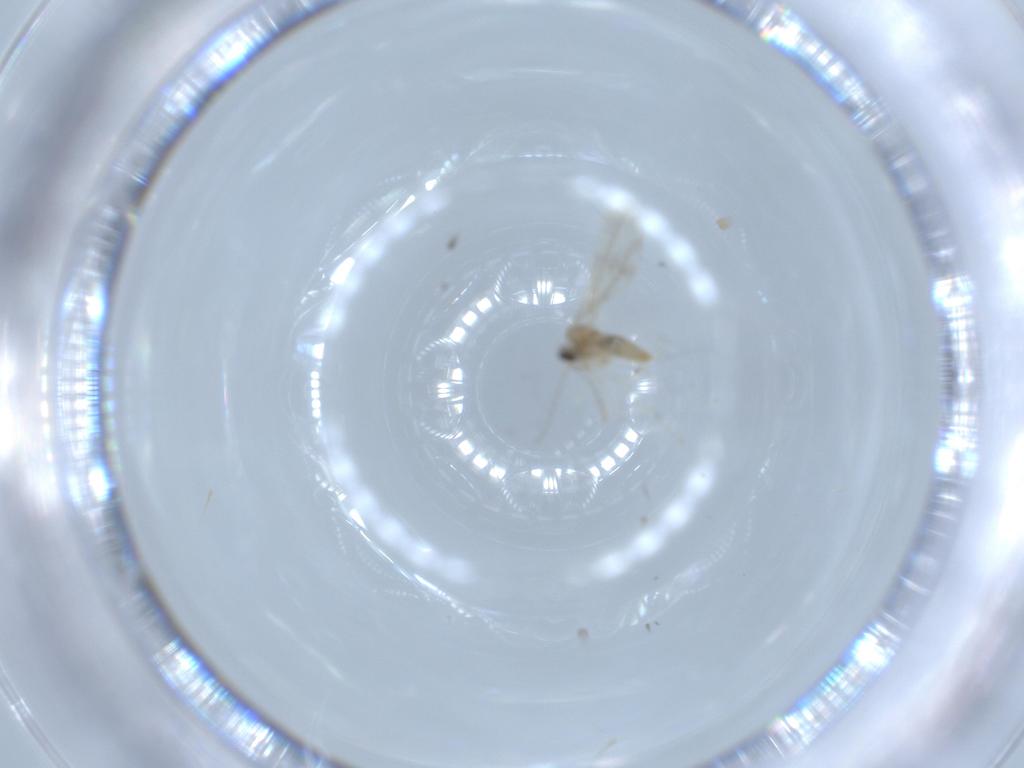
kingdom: Animalia
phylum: Arthropoda
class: Insecta
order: Diptera
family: Cecidomyiidae
